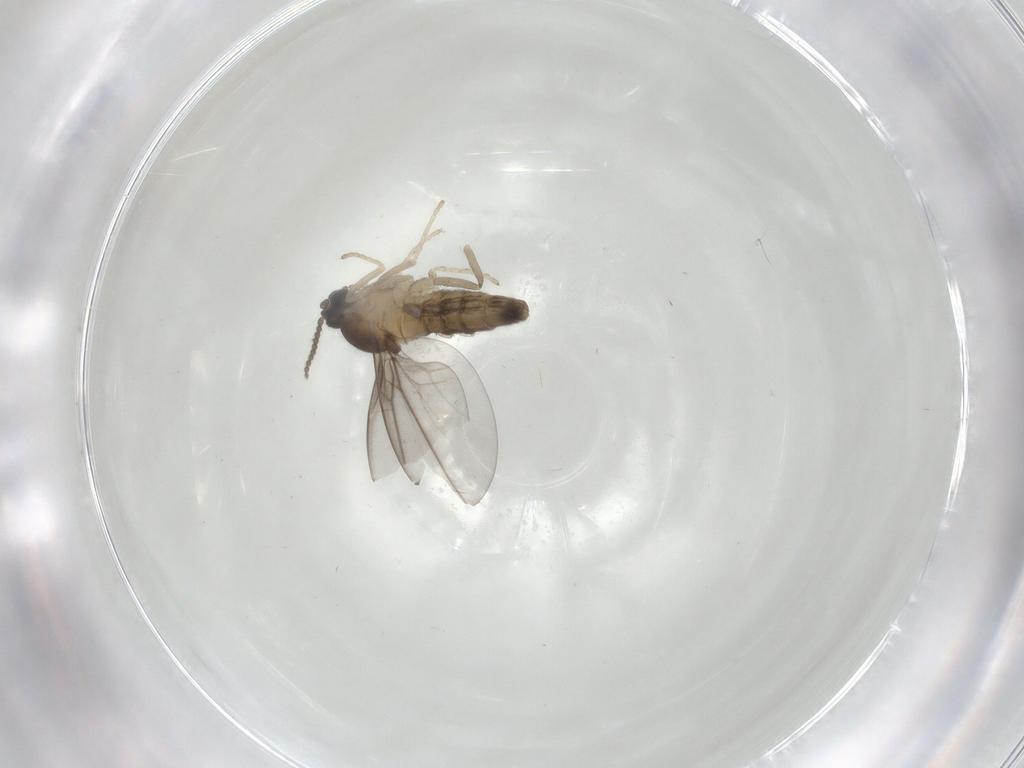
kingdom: Animalia
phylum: Arthropoda
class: Insecta
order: Diptera
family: Cecidomyiidae
